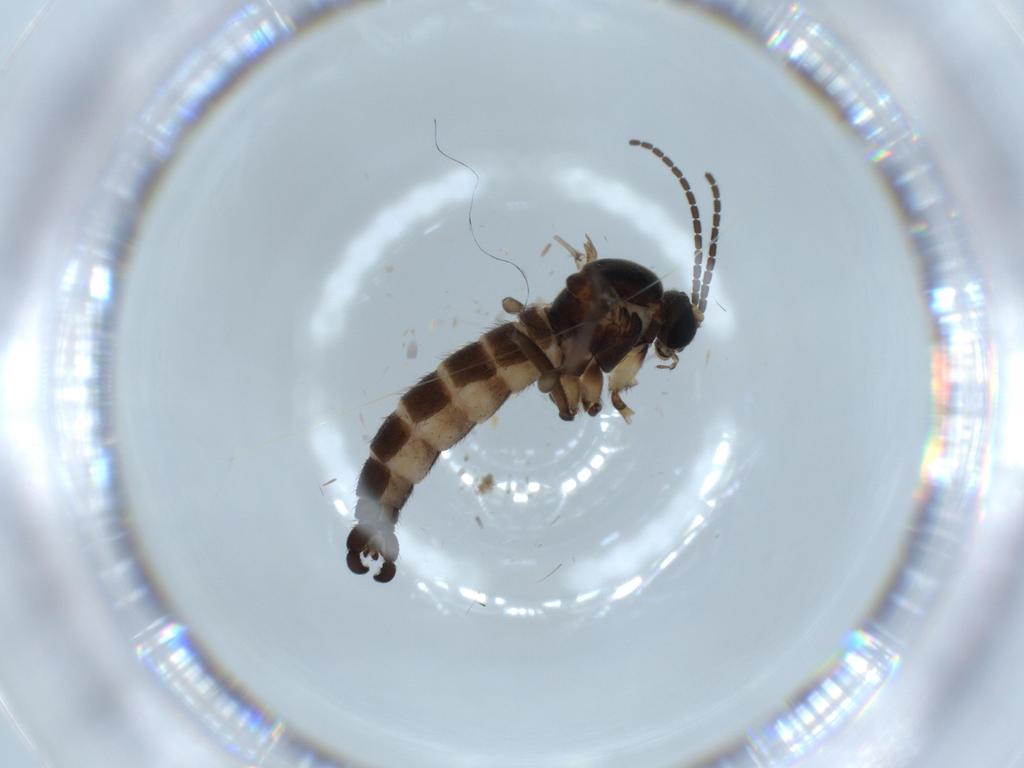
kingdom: Animalia
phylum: Arthropoda
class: Insecta
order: Diptera
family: Sciaridae
